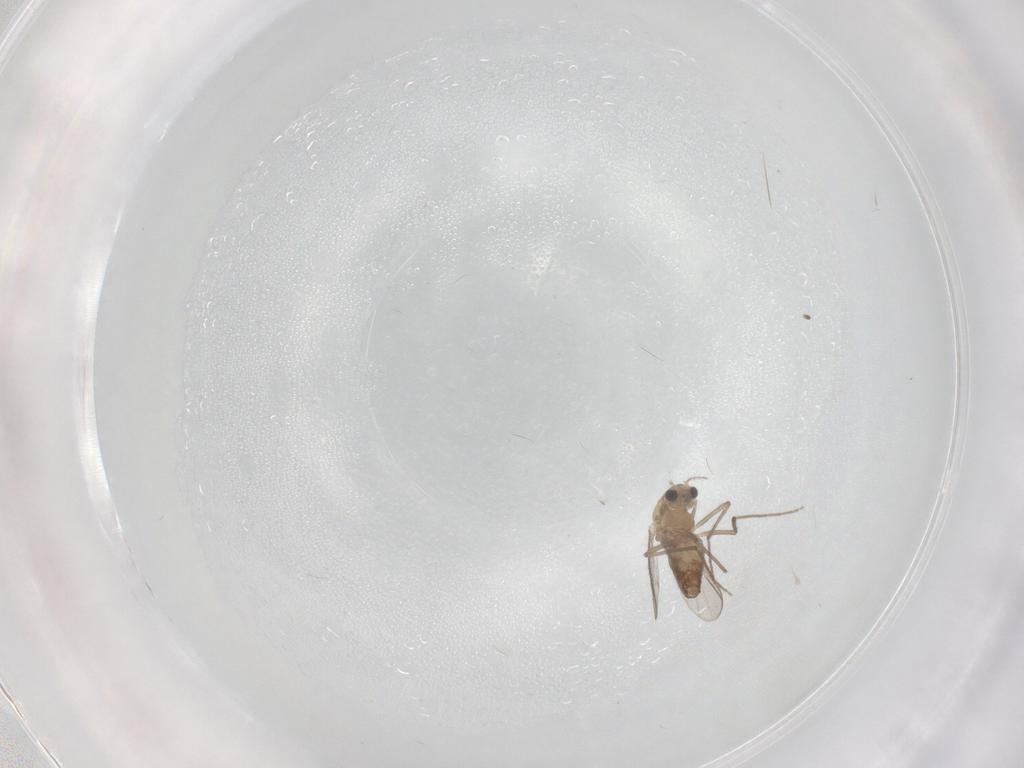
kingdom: Animalia
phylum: Arthropoda
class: Insecta
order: Diptera
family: Chironomidae
